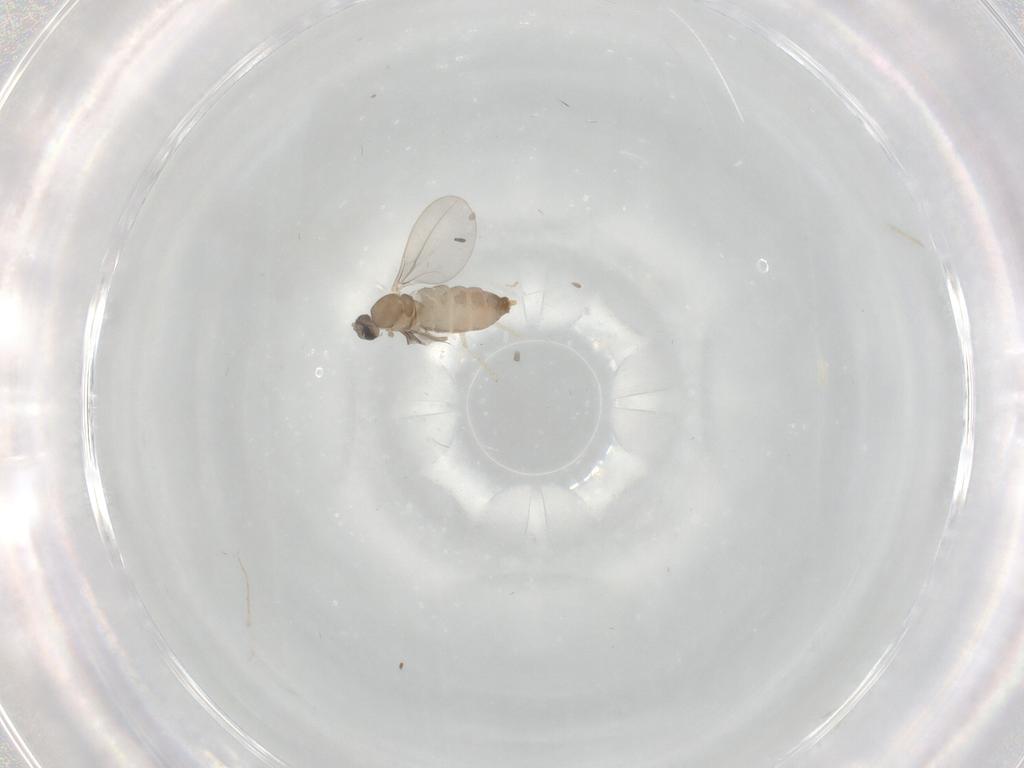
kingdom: Animalia
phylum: Arthropoda
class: Insecta
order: Diptera
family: Cecidomyiidae
